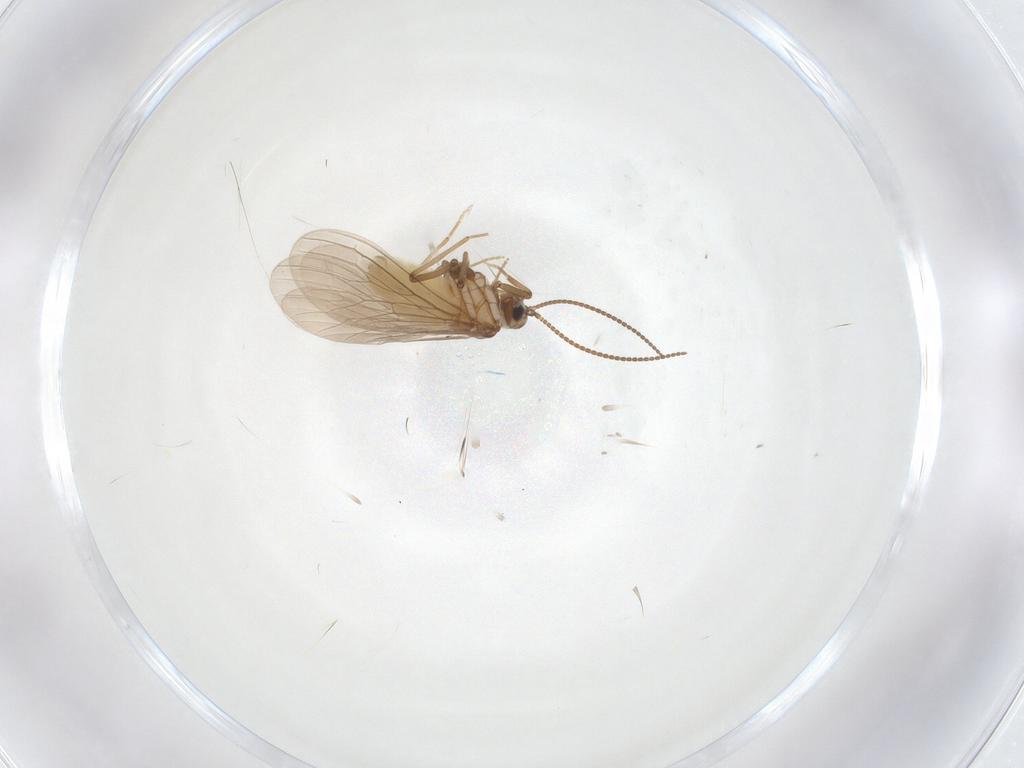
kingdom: Animalia
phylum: Arthropoda
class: Insecta
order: Neuroptera
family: Coniopterygidae
